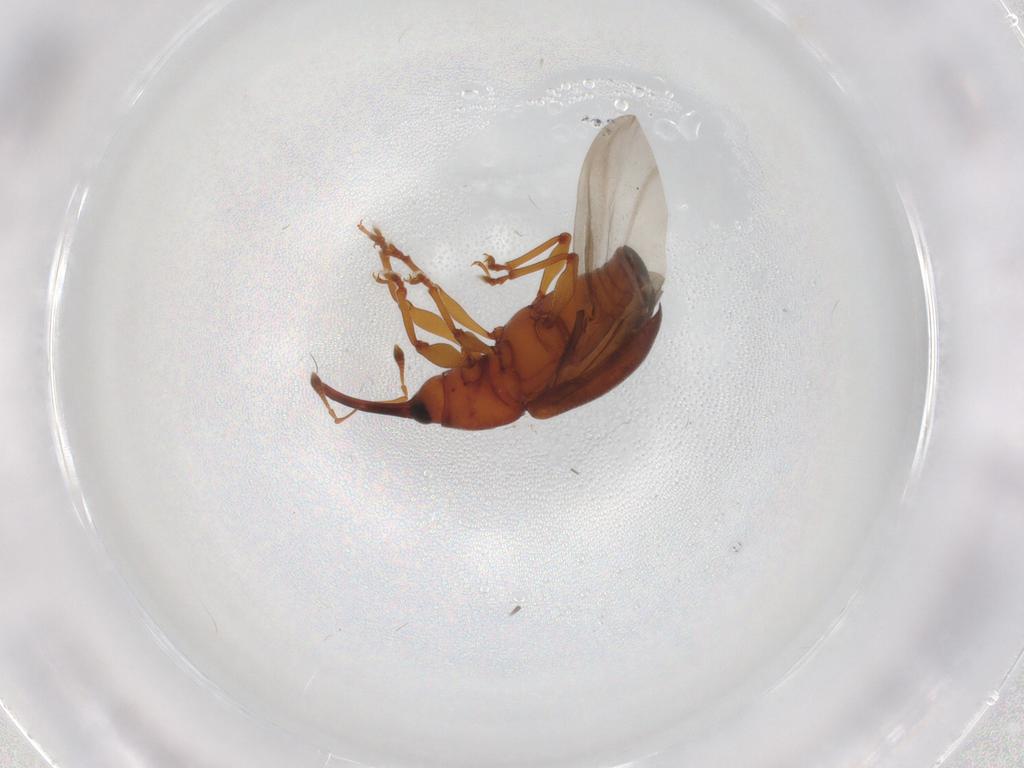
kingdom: Animalia
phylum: Arthropoda
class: Insecta
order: Coleoptera
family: Curculionidae
